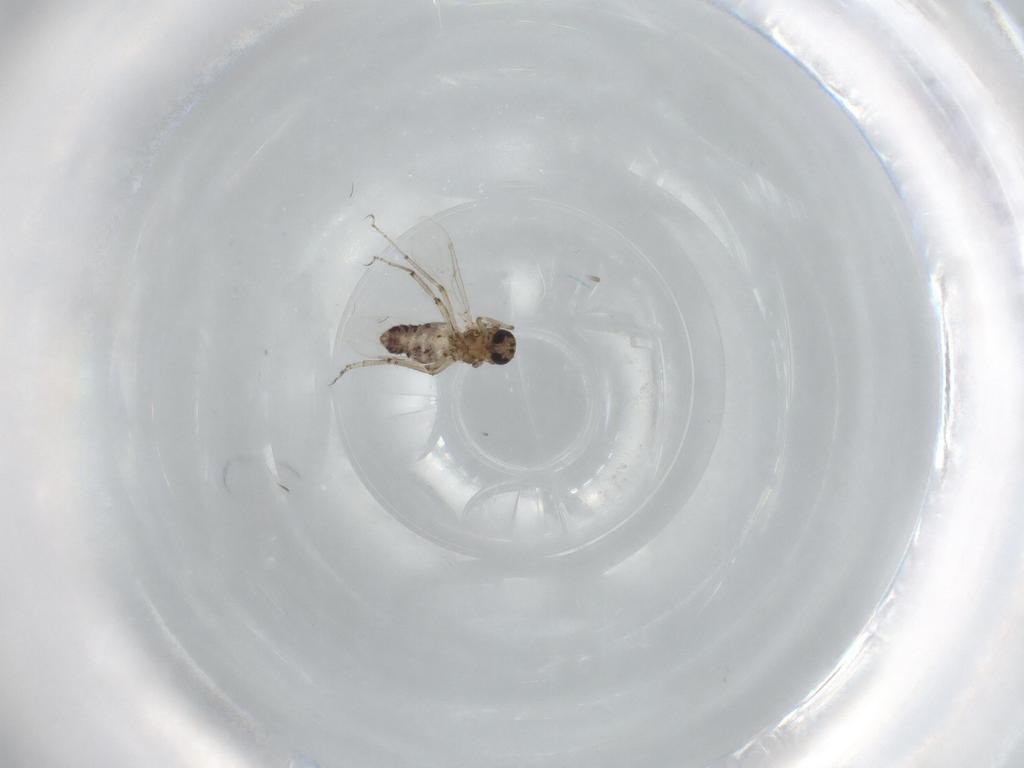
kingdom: Animalia
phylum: Arthropoda
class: Insecta
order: Diptera
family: Ceratopogonidae
